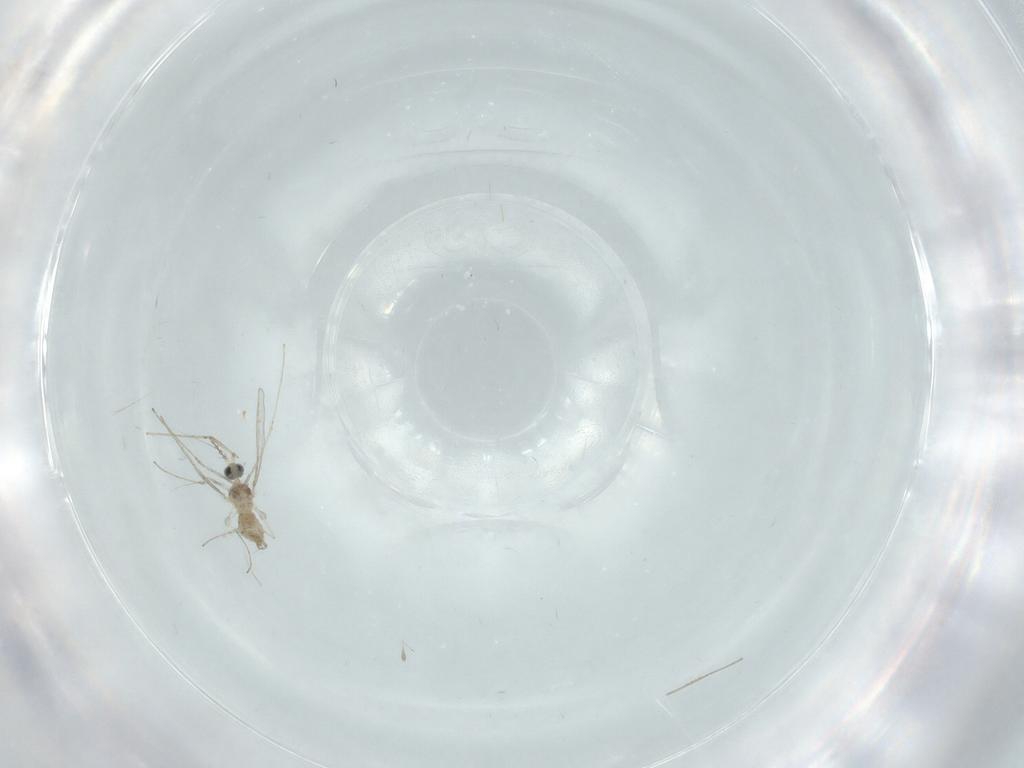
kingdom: Animalia
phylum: Arthropoda
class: Insecta
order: Diptera
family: Cecidomyiidae
